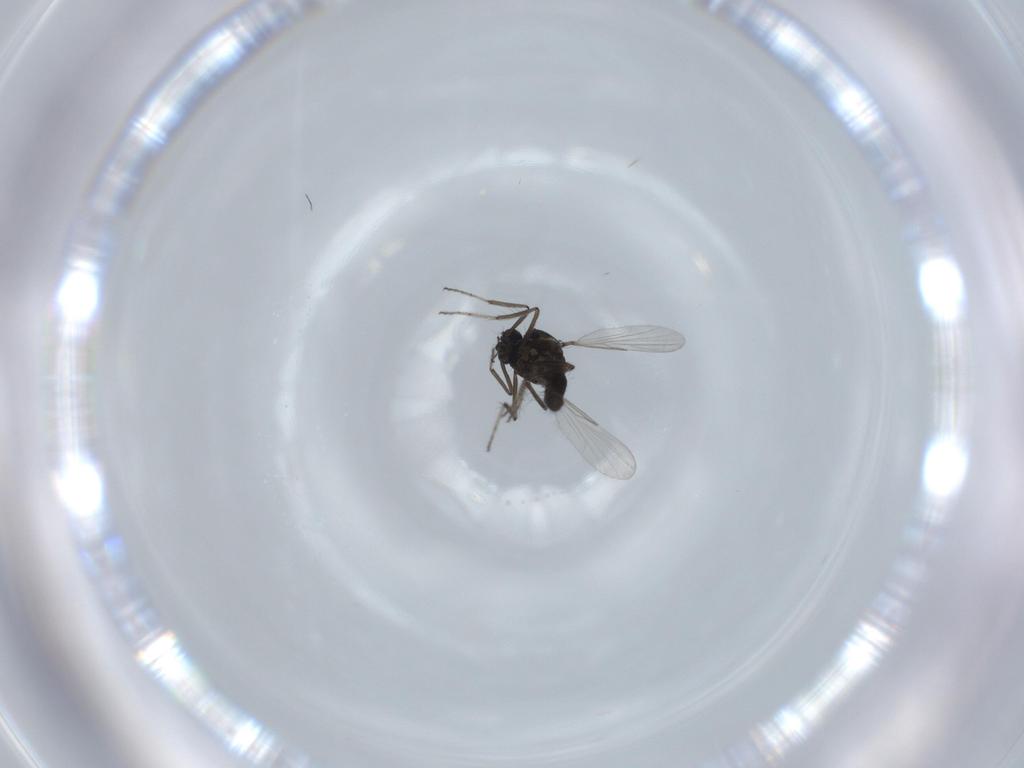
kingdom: Animalia
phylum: Arthropoda
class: Insecta
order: Diptera
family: Ceratopogonidae
